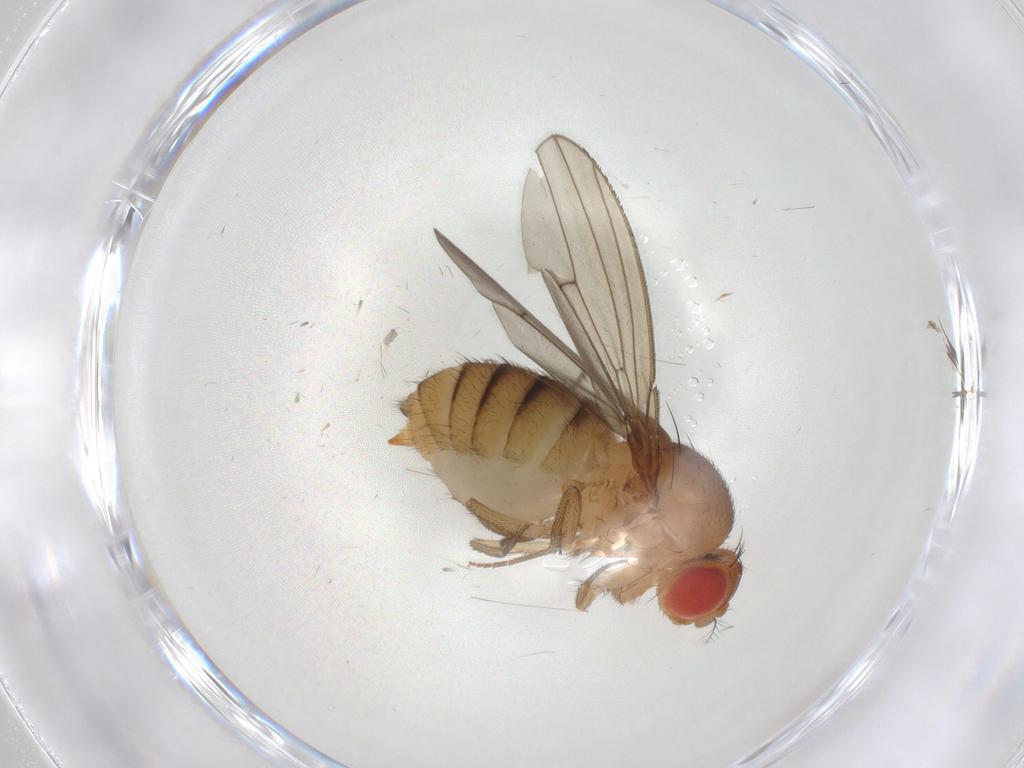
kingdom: Animalia
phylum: Arthropoda
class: Insecta
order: Diptera
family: Drosophilidae
